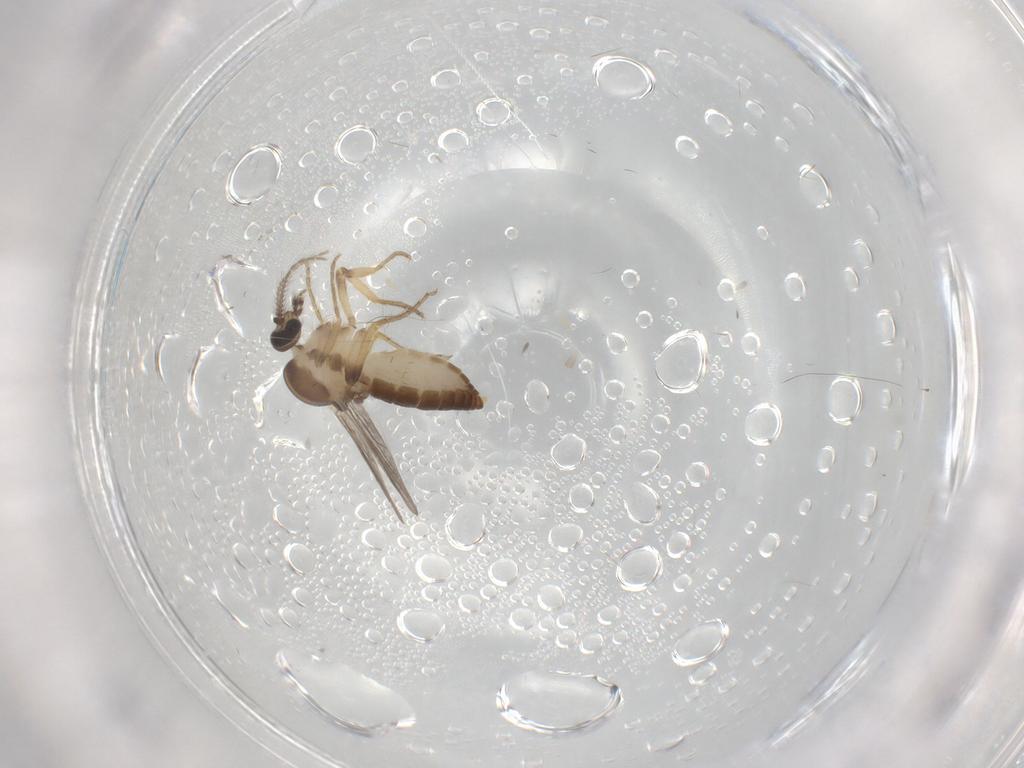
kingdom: Animalia
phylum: Arthropoda
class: Insecta
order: Diptera
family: Ceratopogonidae
